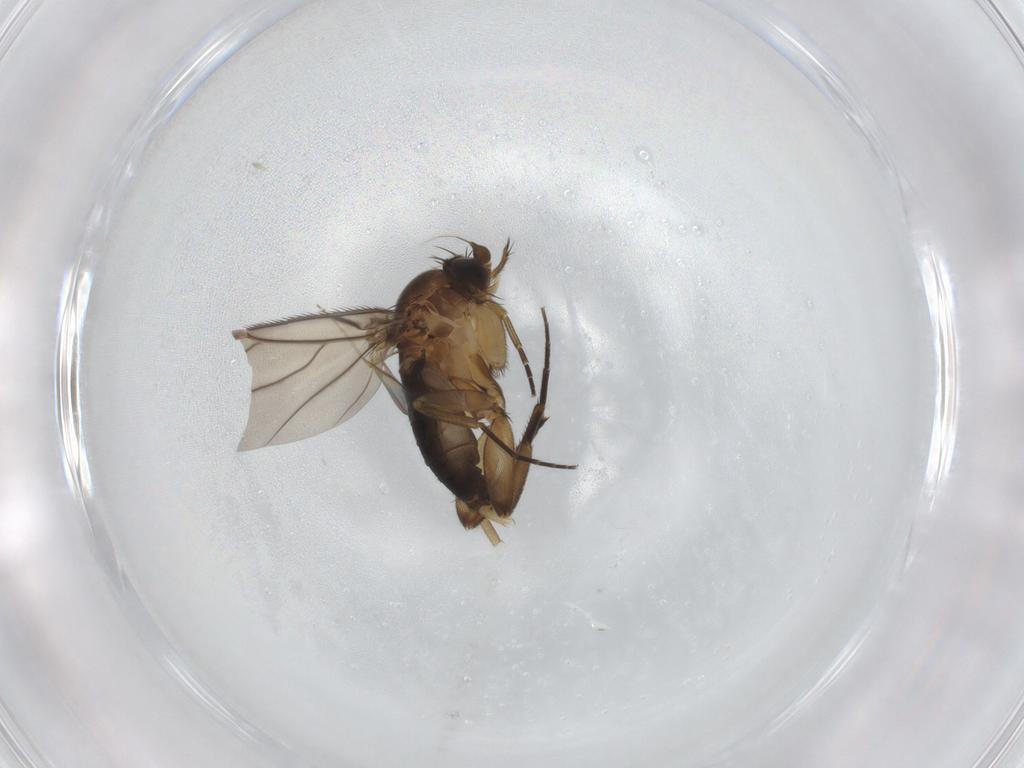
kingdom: Animalia
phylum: Arthropoda
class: Insecta
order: Diptera
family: Phoridae
